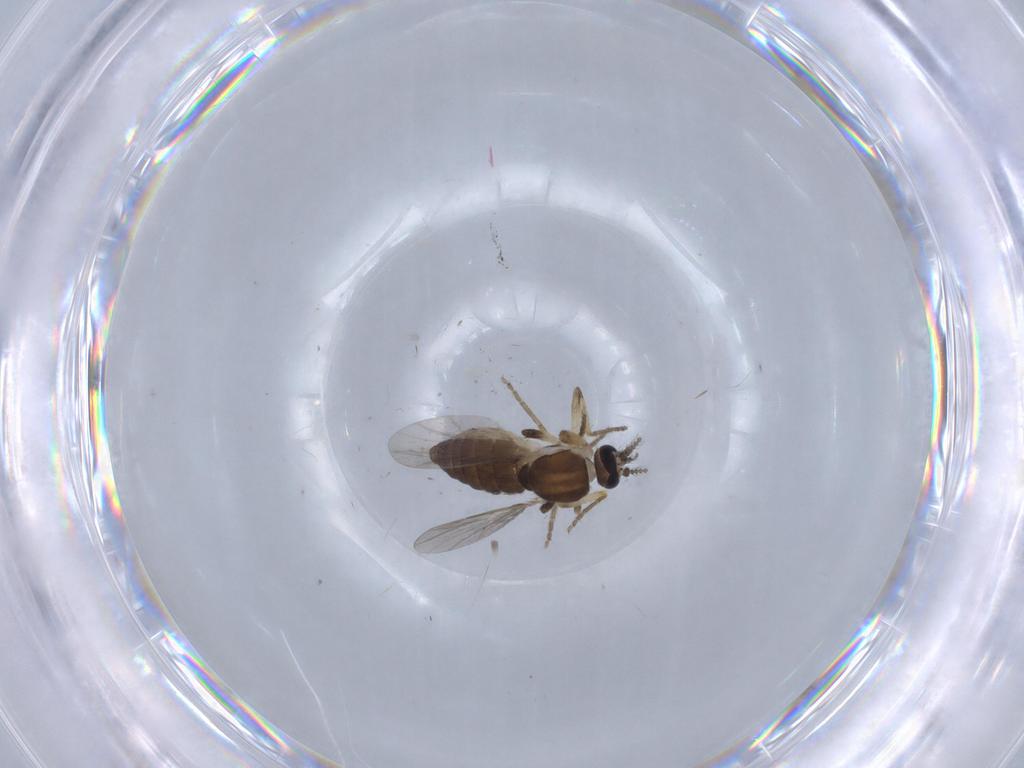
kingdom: Animalia
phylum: Arthropoda
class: Insecta
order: Diptera
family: Ceratopogonidae
